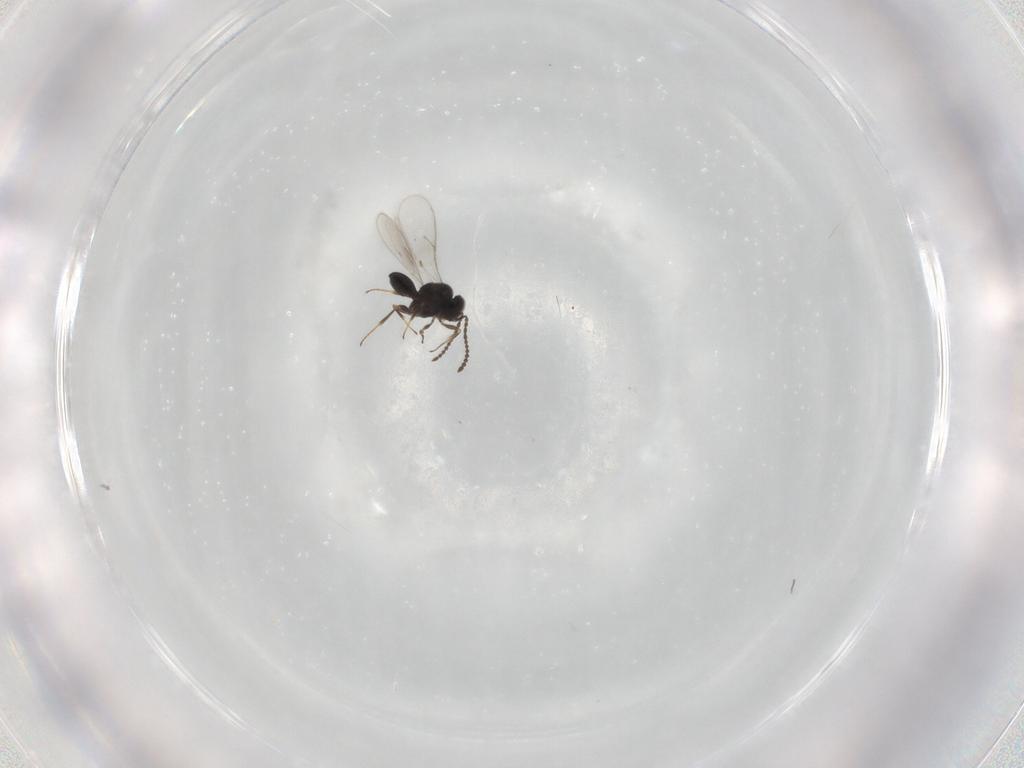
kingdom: Animalia
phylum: Arthropoda
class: Insecta
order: Hymenoptera
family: Scelionidae
